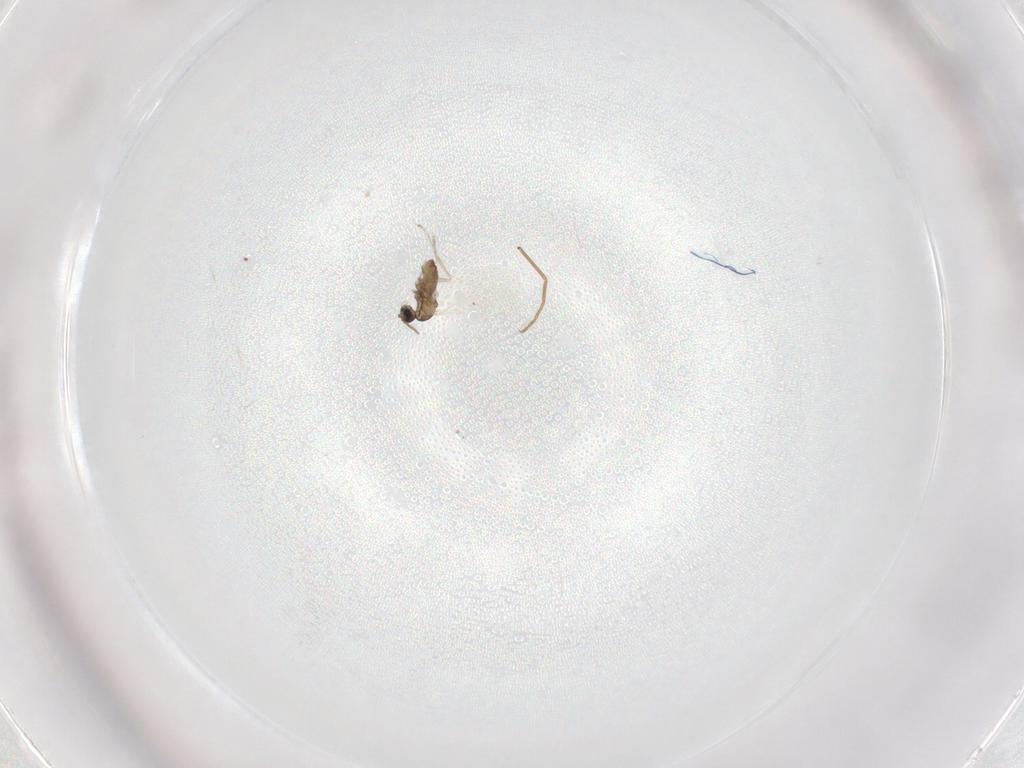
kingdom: Animalia
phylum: Arthropoda
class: Insecta
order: Diptera
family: Cecidomyiidae
